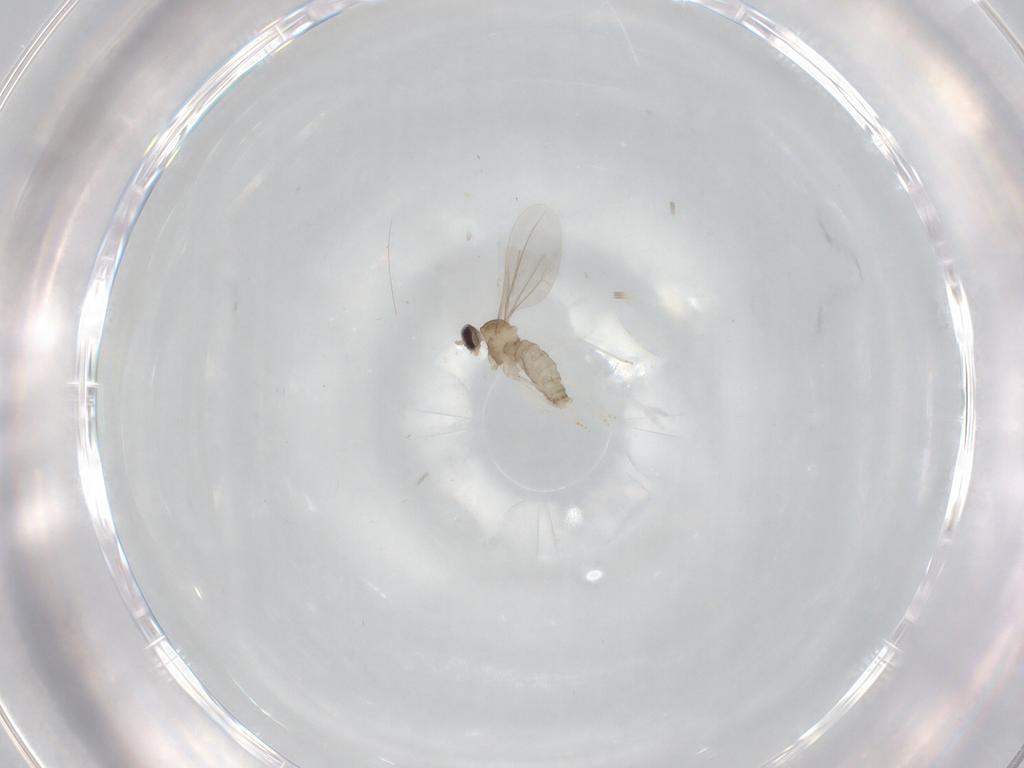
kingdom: Animalia
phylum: Arthropoda
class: Insecta
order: Diptera
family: Cecidomyiidae
